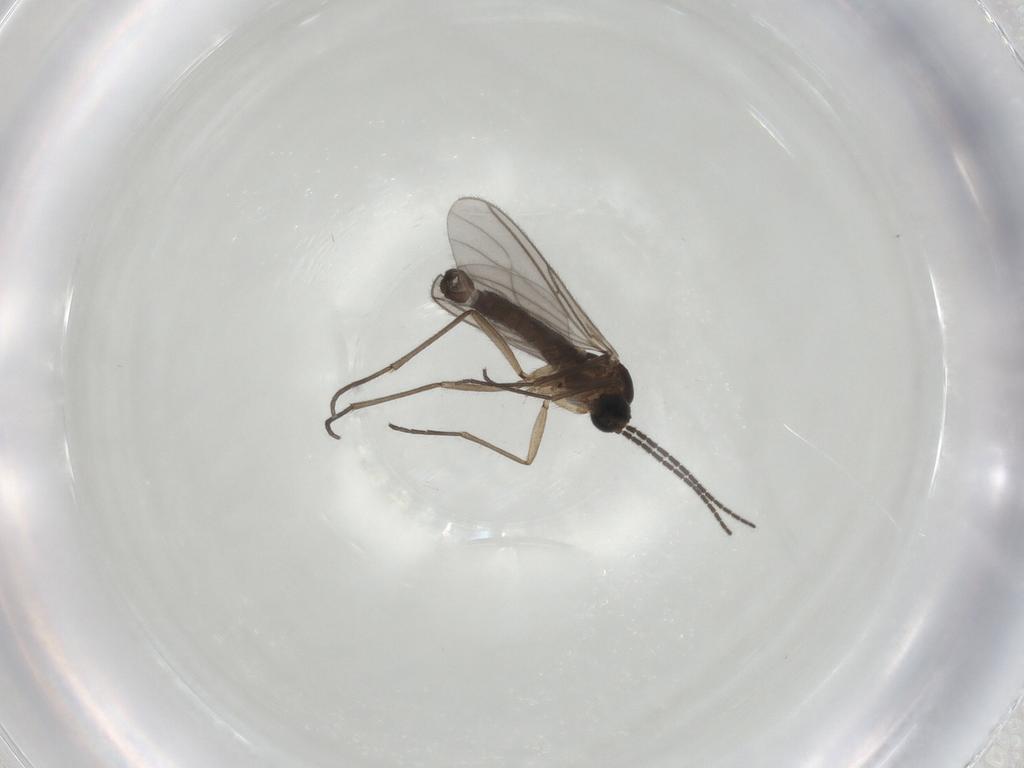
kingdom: Animalia
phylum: Arthropoda
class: Insecta
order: Diptera
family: Sciaridae
